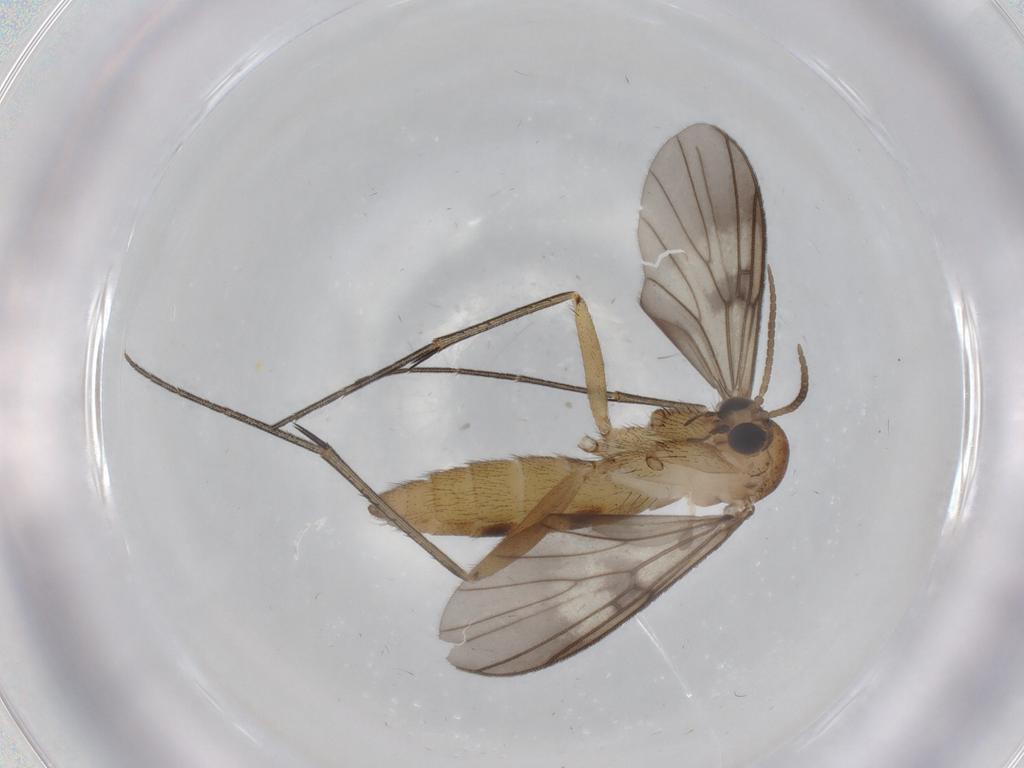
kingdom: Animalia
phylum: Arthropoda
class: Insecta
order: Diptera
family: Mycetophilidae
